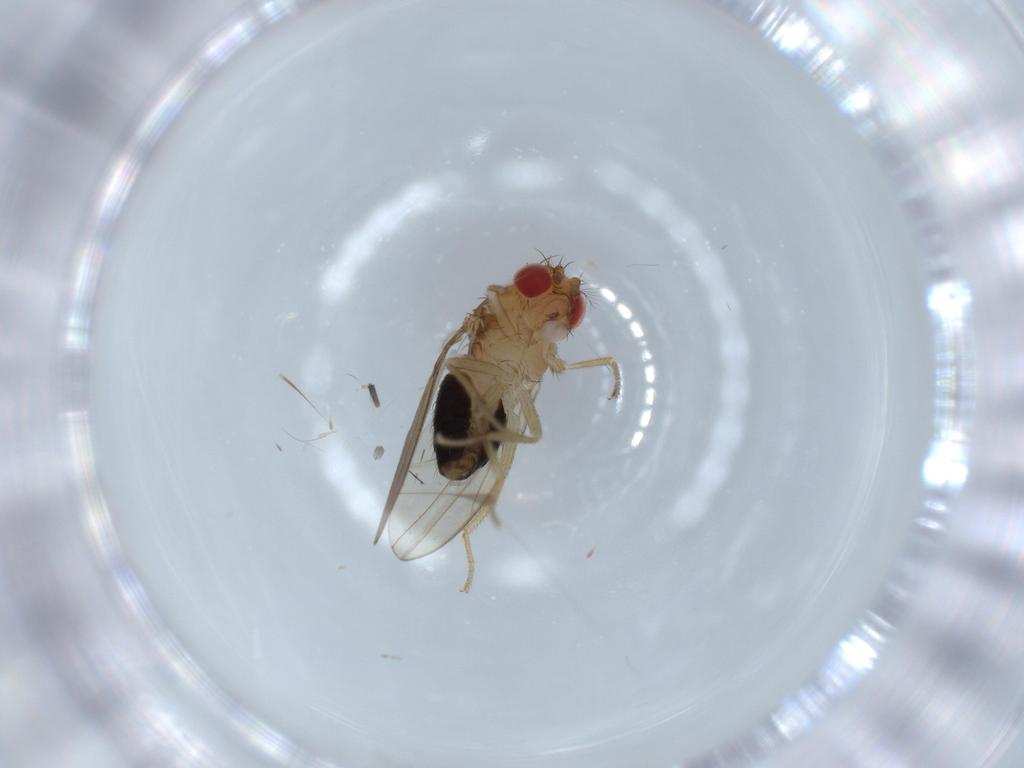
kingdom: Animalia
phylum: Arthropoda
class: Insecta
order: Diptera
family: Drosophilidae
